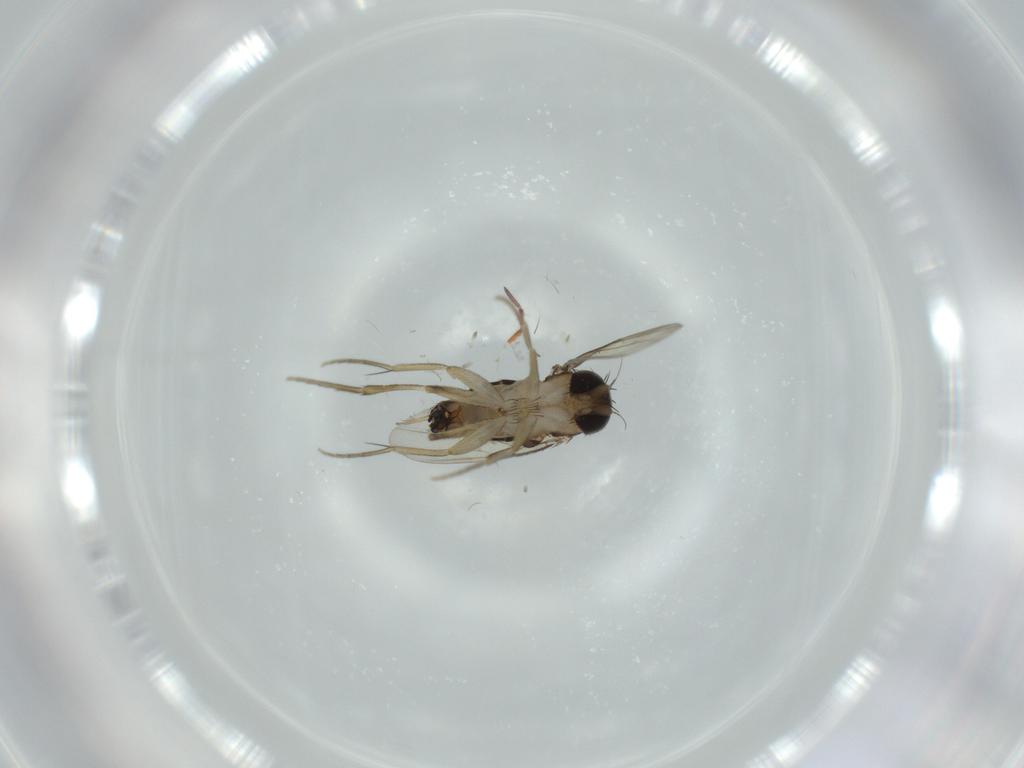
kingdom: Animalia
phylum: Arthropoda
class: Insecta
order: Diptera
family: Phoridae
